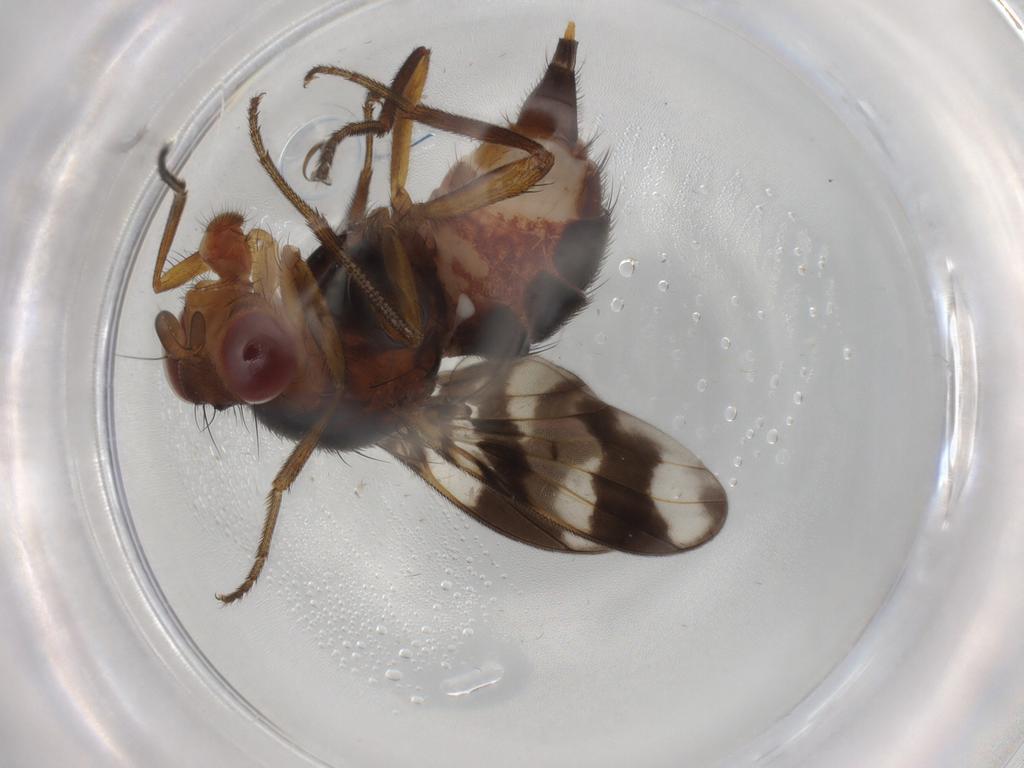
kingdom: Animalia
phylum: Arthropoda
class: Insecta
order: Diptera
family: Richardiidae
